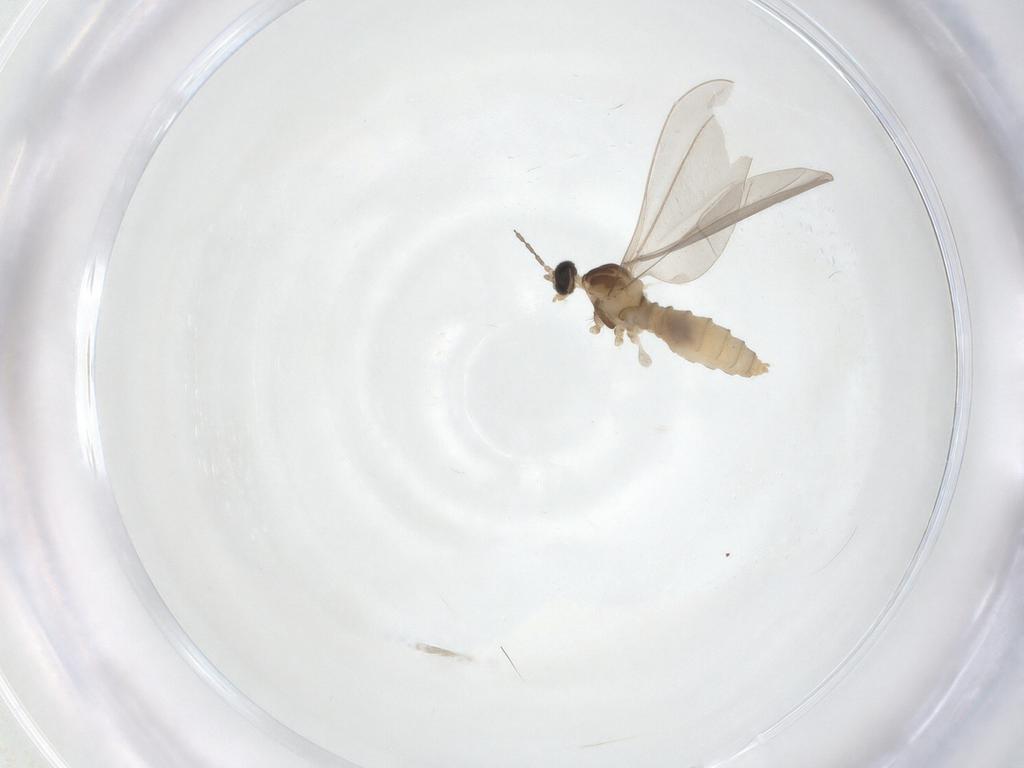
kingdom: Animalia
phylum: Arthropoda
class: Insecta
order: Diptera
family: Cecidomyiidae
